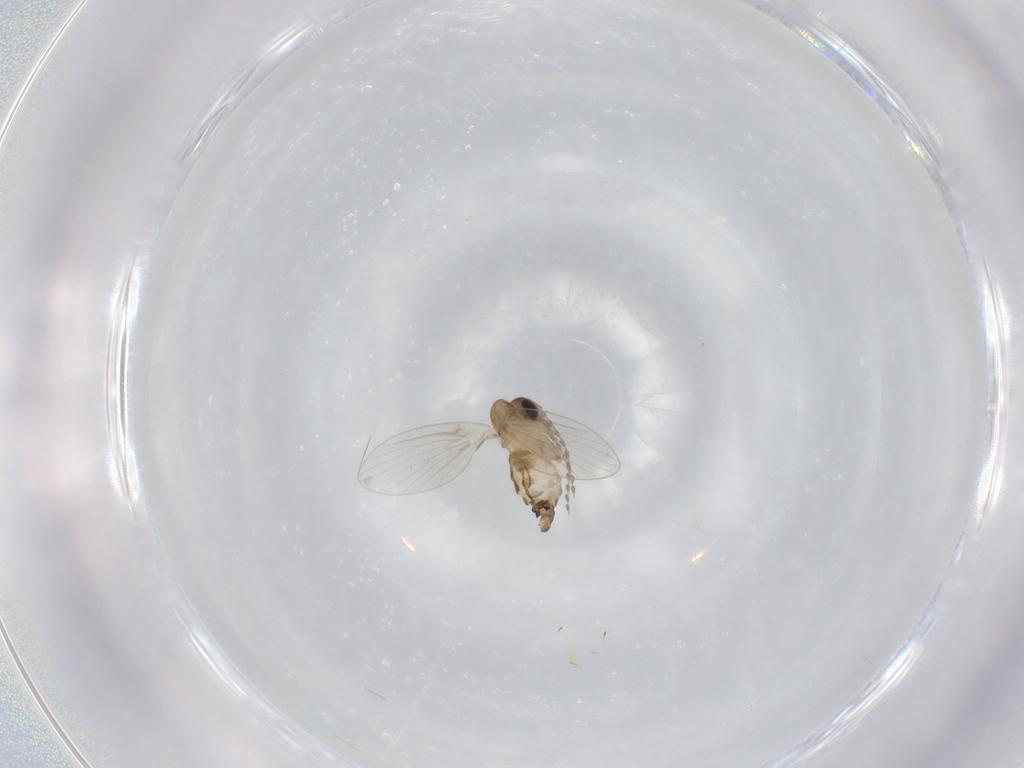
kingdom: Animalia
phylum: Arthropoda
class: Insecta
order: Diptera
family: Psychodidae
